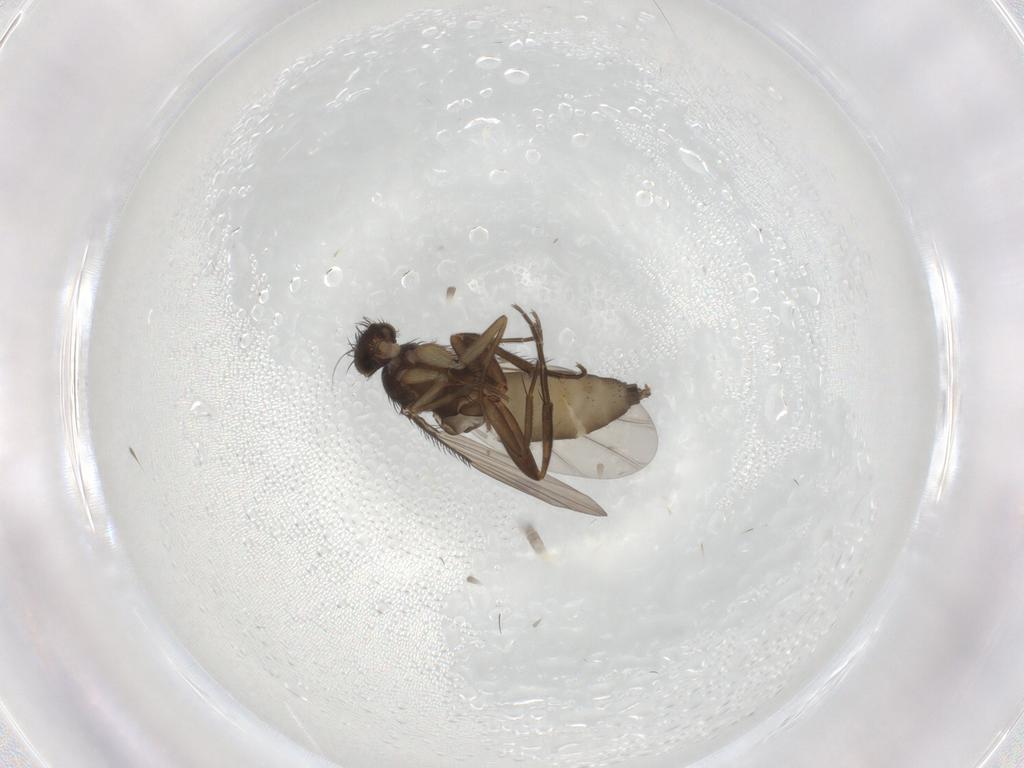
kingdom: Animalia
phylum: Arthropoda
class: Insecta
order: Diptera
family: Phoridae
